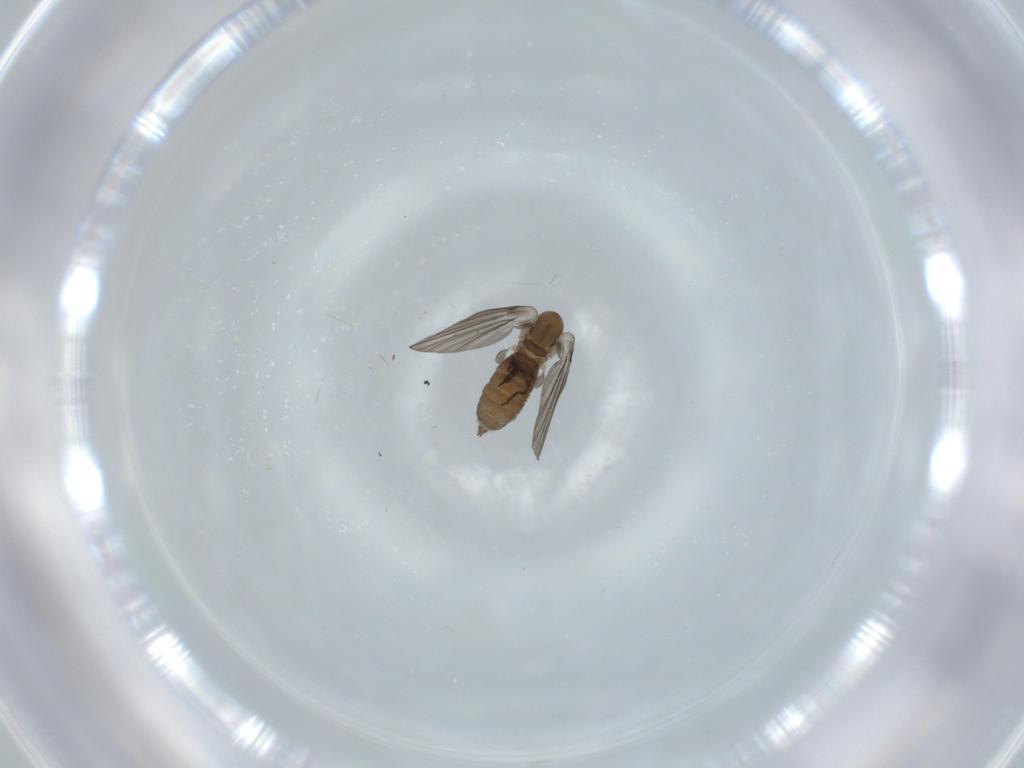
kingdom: Animalia
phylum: Arthropoda
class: Insecta
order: Diptera
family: Psychodidae
